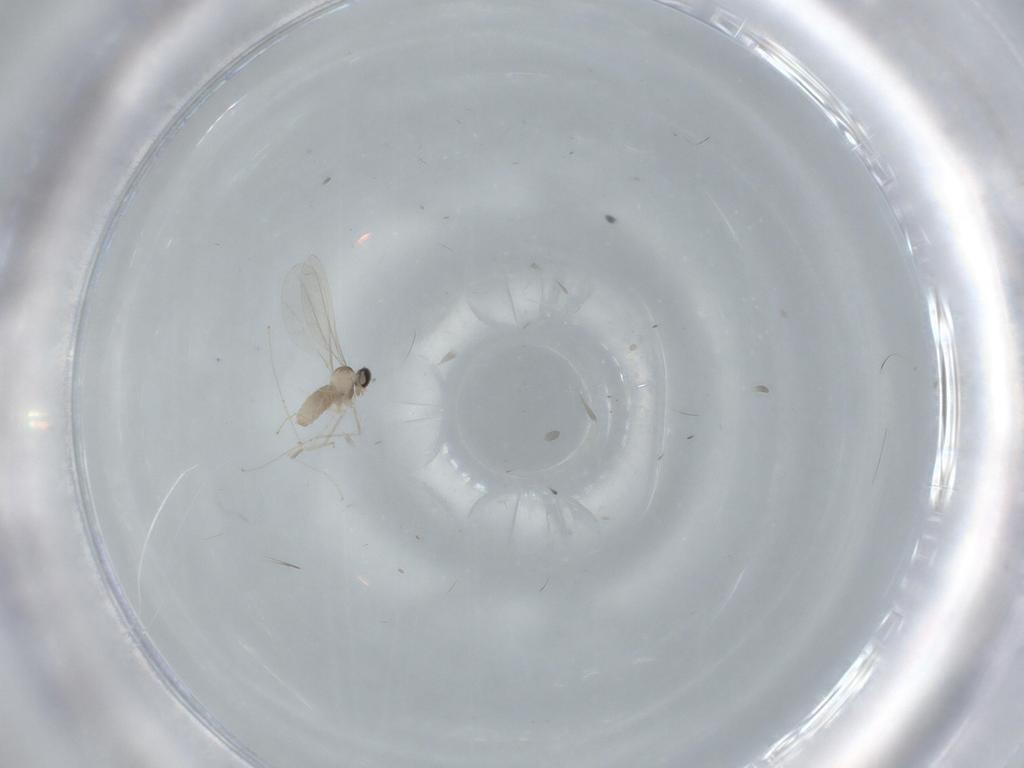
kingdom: Animalia
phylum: Arthropoda
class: Insecta
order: Diptera
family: Cecidomyiidae
